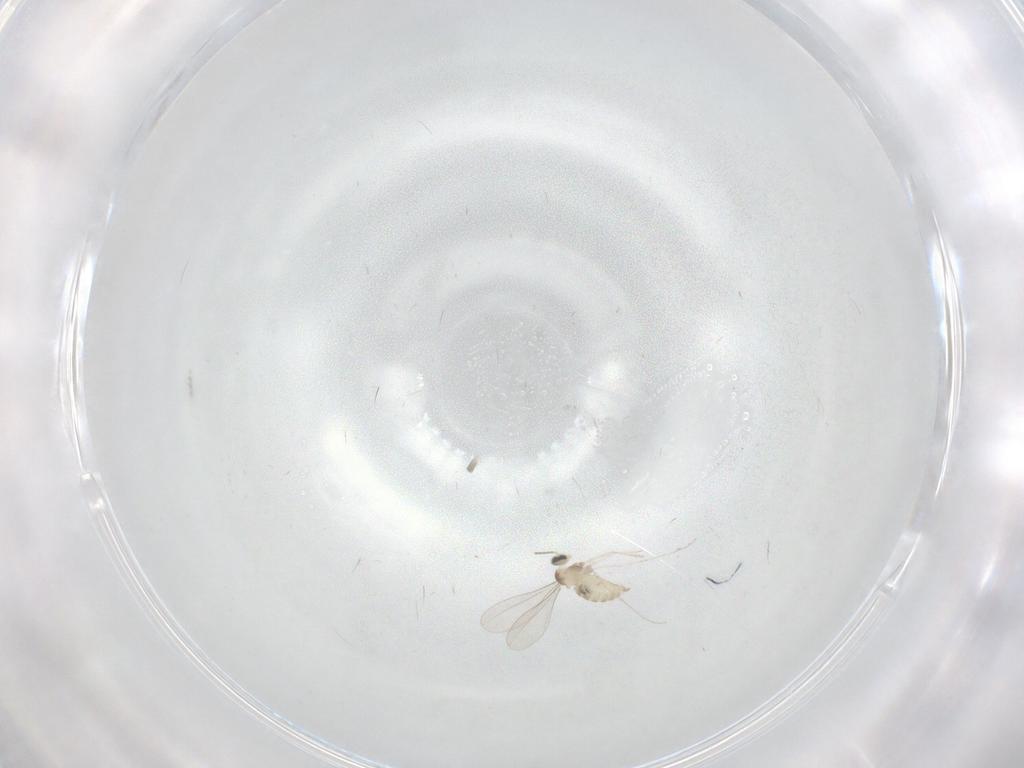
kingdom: Animalia
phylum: Arthropoda
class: Insecta
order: Diptera
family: Cecidomyiidae
